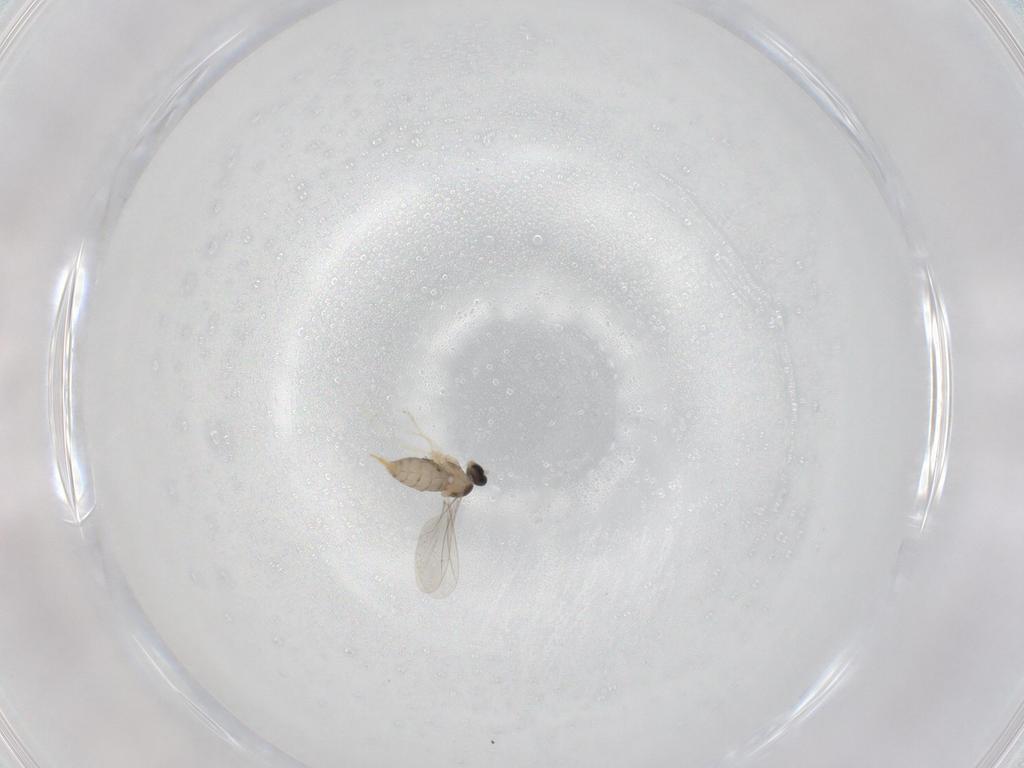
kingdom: Animalia
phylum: Arthropoda
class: Insecta
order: Diptera
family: Cecidomyiidae
